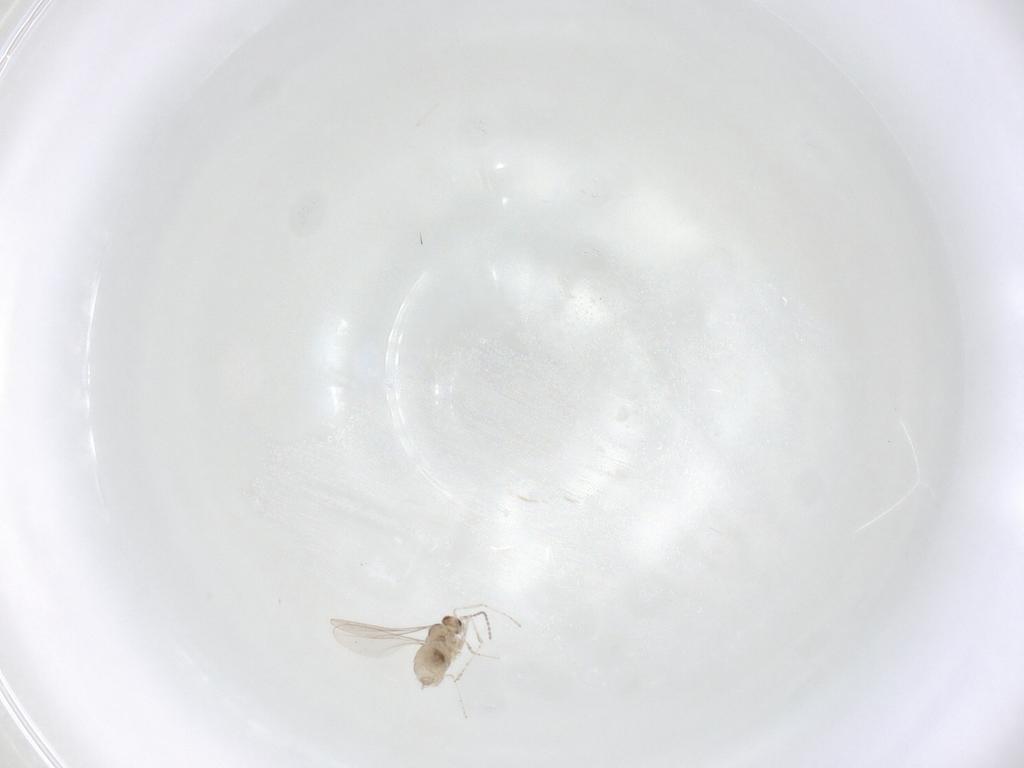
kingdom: Animalia
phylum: Arthropoda
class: Insecta
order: Diptera
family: Cecidomyiidae
